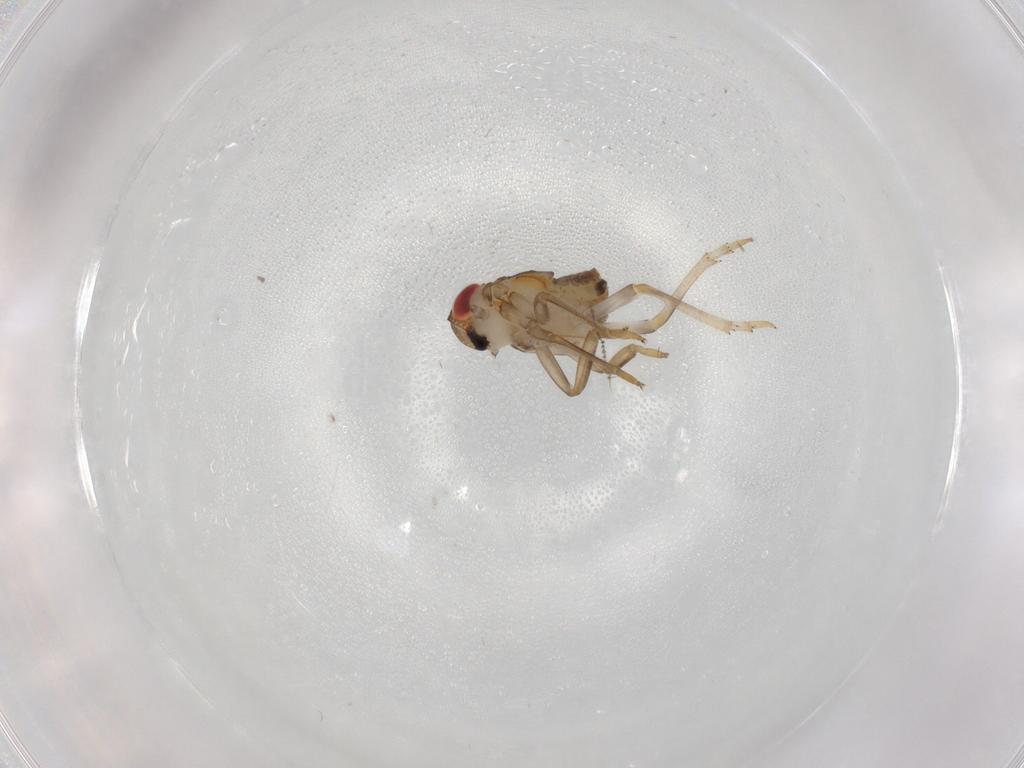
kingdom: Animalia
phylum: Arthropoda
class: Insecta
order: Hemiptera
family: Issidae
